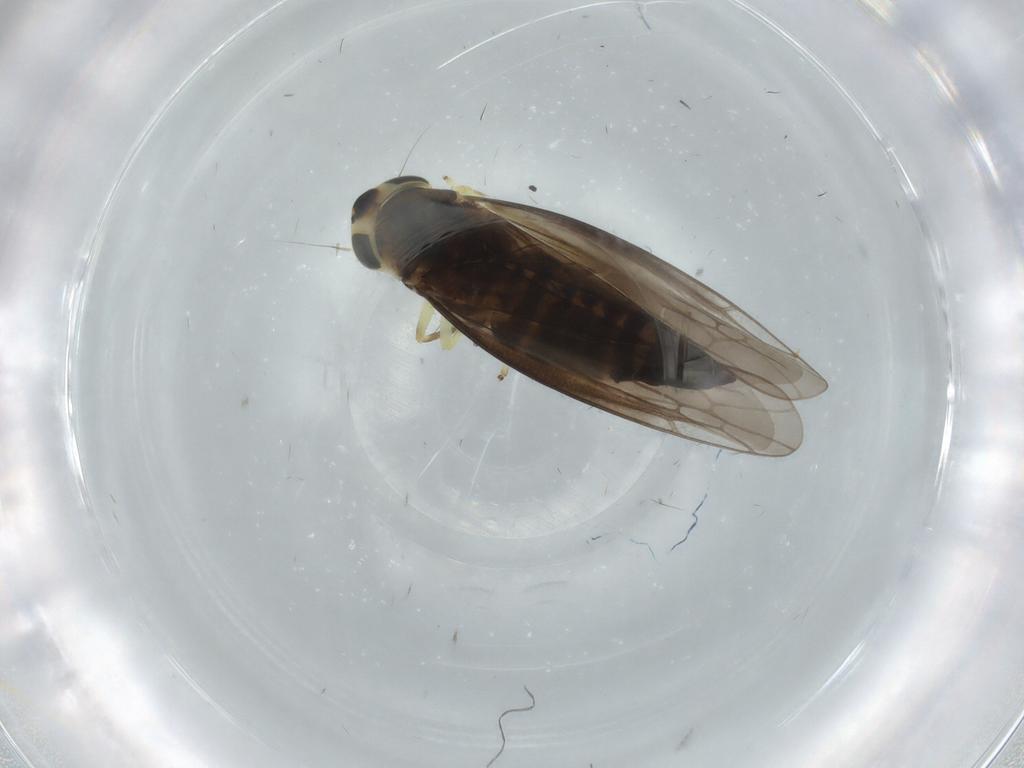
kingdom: Animalia
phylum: Arthropoda
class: Insecta
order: Hemiptera
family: Cicadellidae
